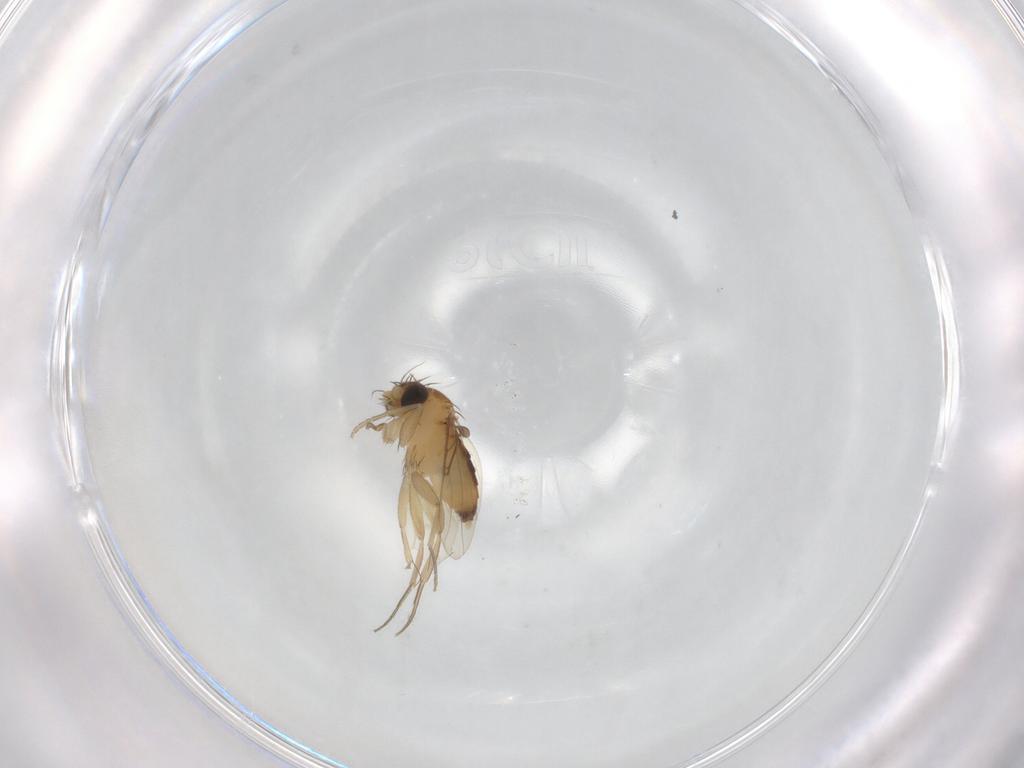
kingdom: Animalia
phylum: Arthropoda
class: Insecta
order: Diptera
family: Phoridae
